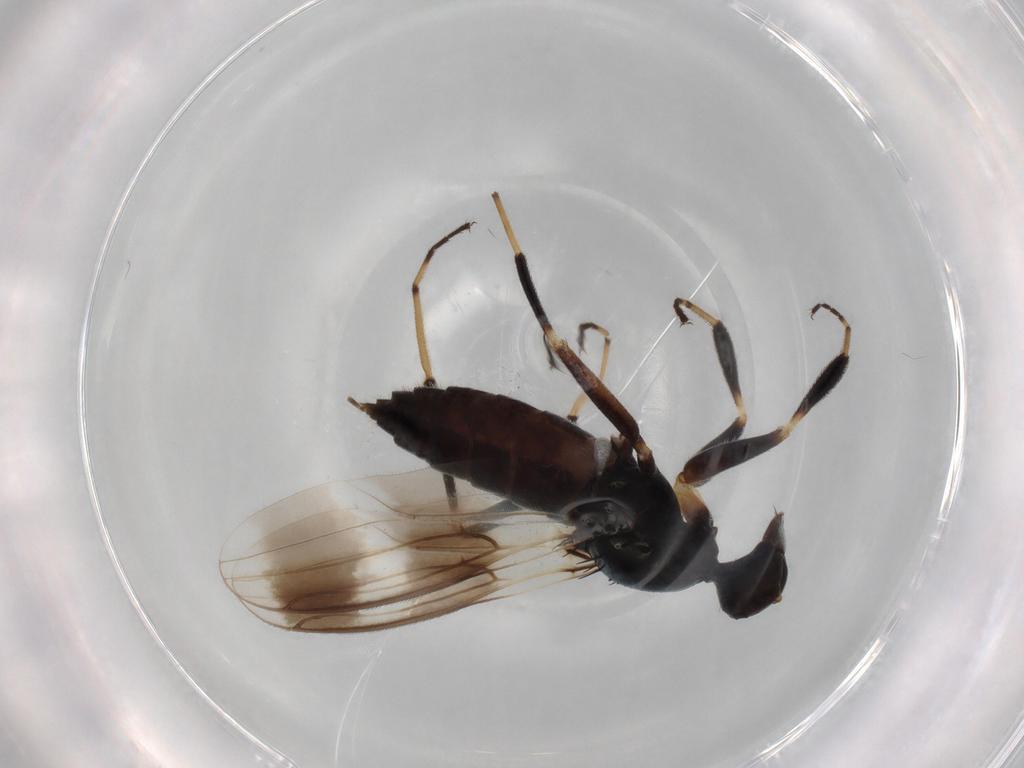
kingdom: Animalia
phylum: Arthropoda
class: Insecta
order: Diptera
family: Hybotidae
